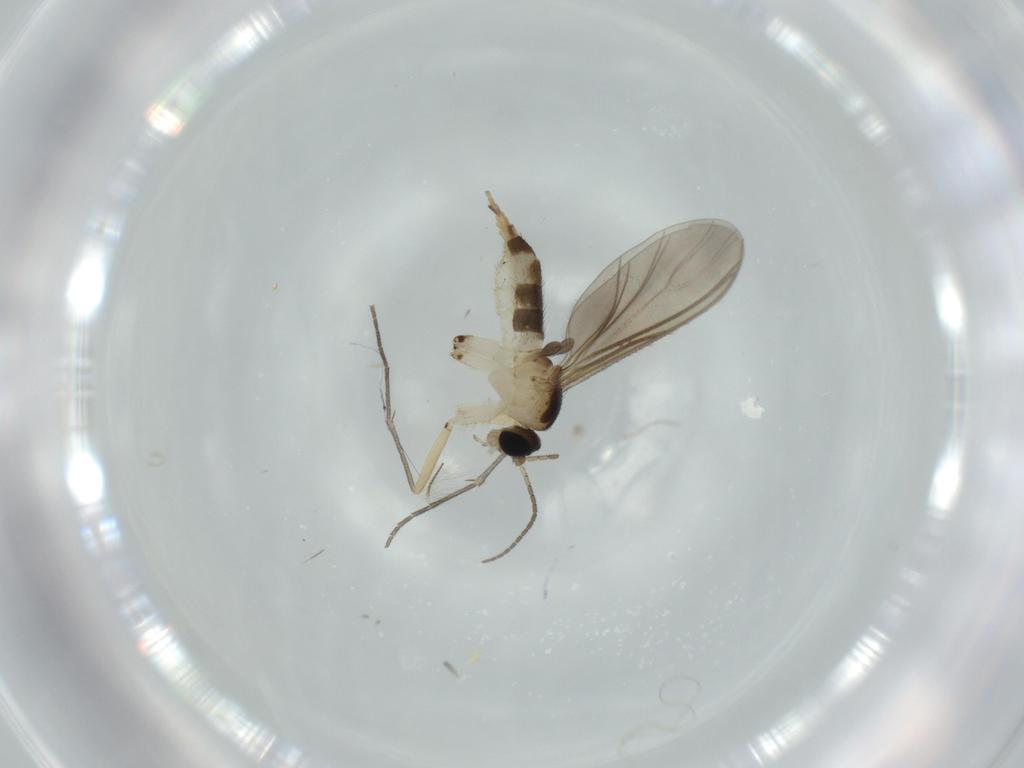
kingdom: Animalia
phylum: Arthropoda
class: Insecta
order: Diptera
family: Sciaridae
